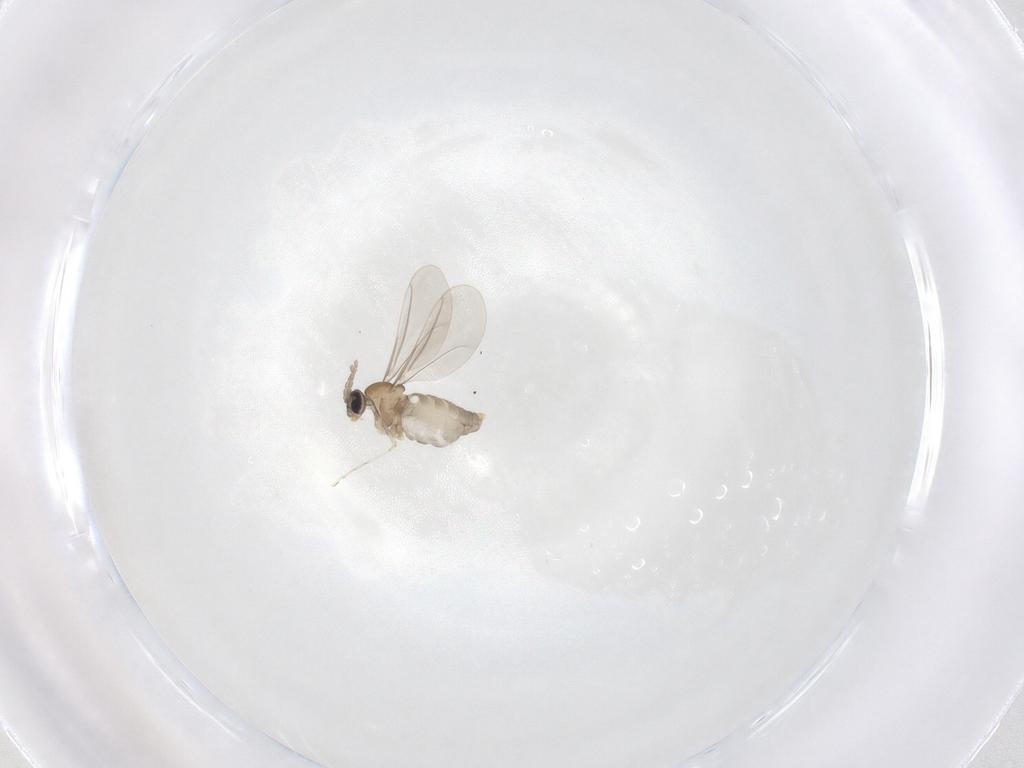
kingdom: Animalia
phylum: Arthropoda
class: Insecta
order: Diptera
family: Cecidomyiidae
